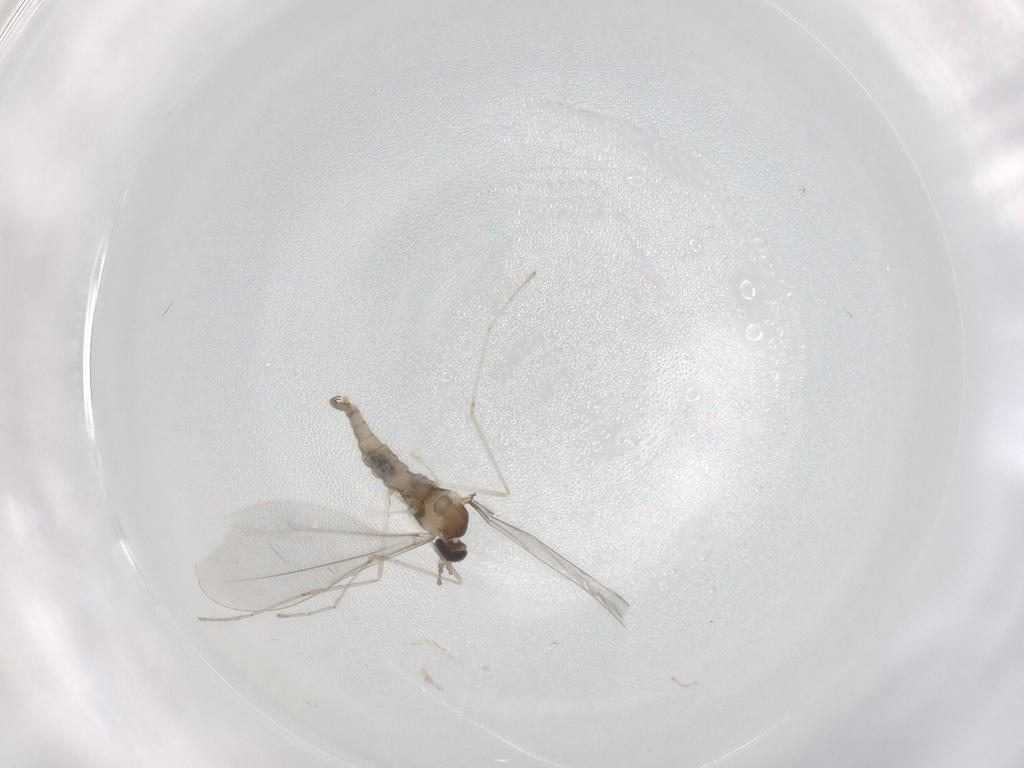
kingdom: Animalia
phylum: Arthropoda
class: Insecta
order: Diptera
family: Cecidomyiidae
